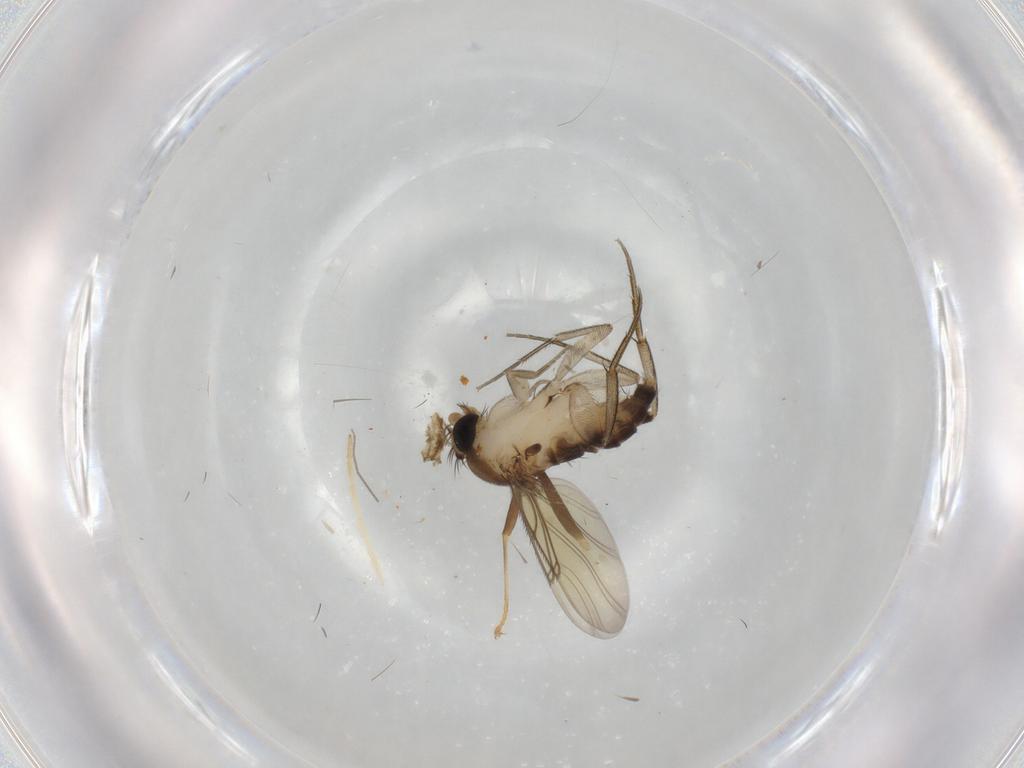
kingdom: Animalia
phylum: Arthropoda
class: Insecta
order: Diptera
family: Phoridae
